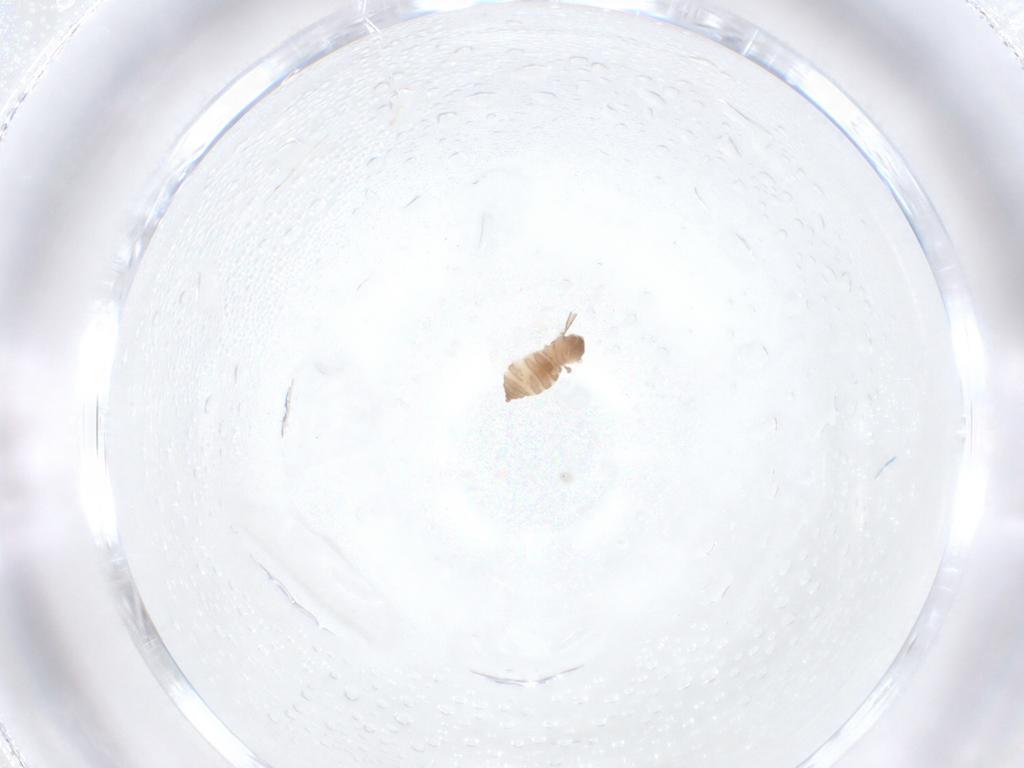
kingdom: Animalia
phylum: Arthropoda
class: Insecta
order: Diptera
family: Cecidomyiidae
